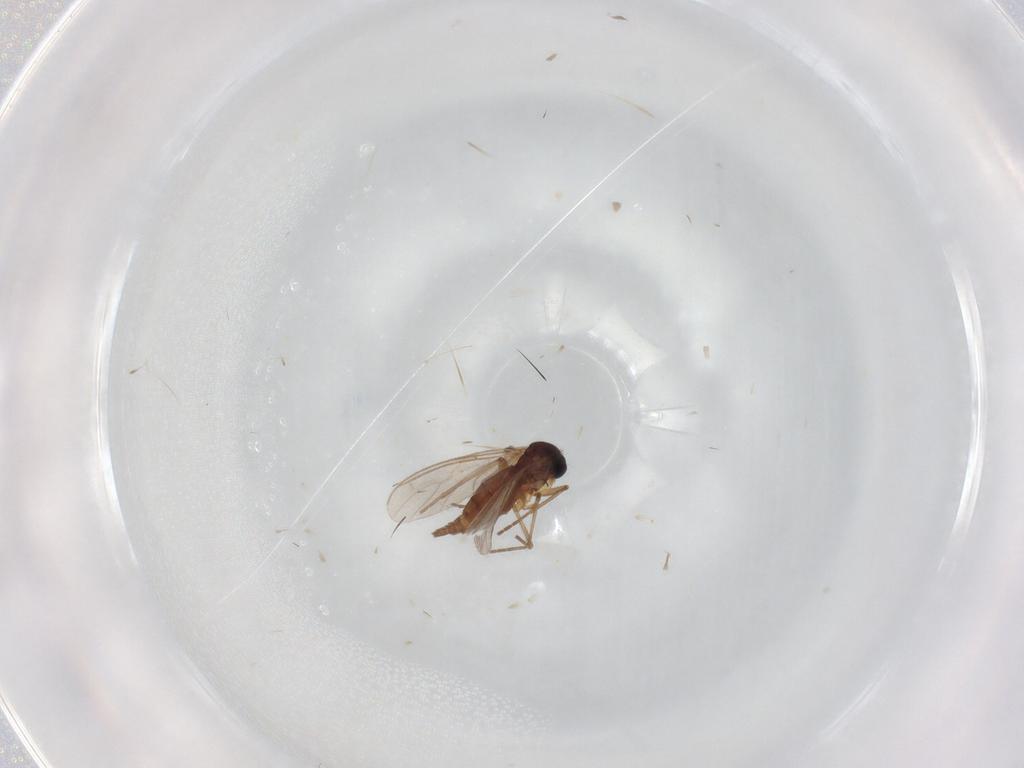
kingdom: Animalia
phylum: Arthropoda
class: Insecta
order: Diptera
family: Sciaridae
